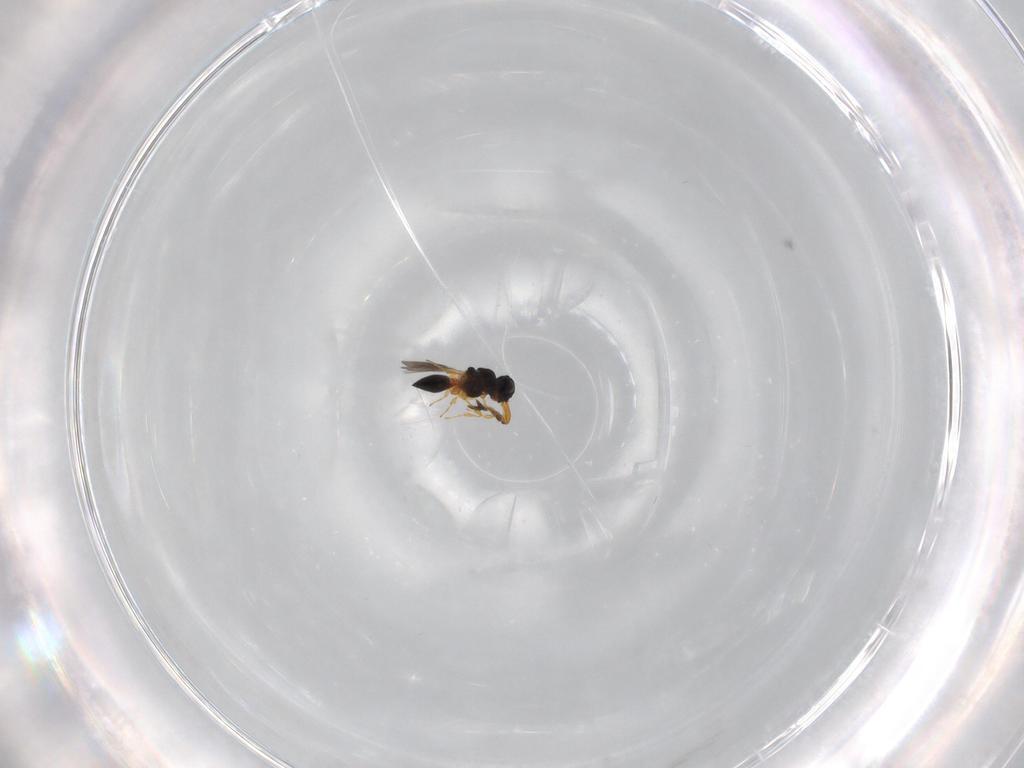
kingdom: Animalia
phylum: Arthropoda
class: Insecta
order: Hymenoptera
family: Platygastridae
